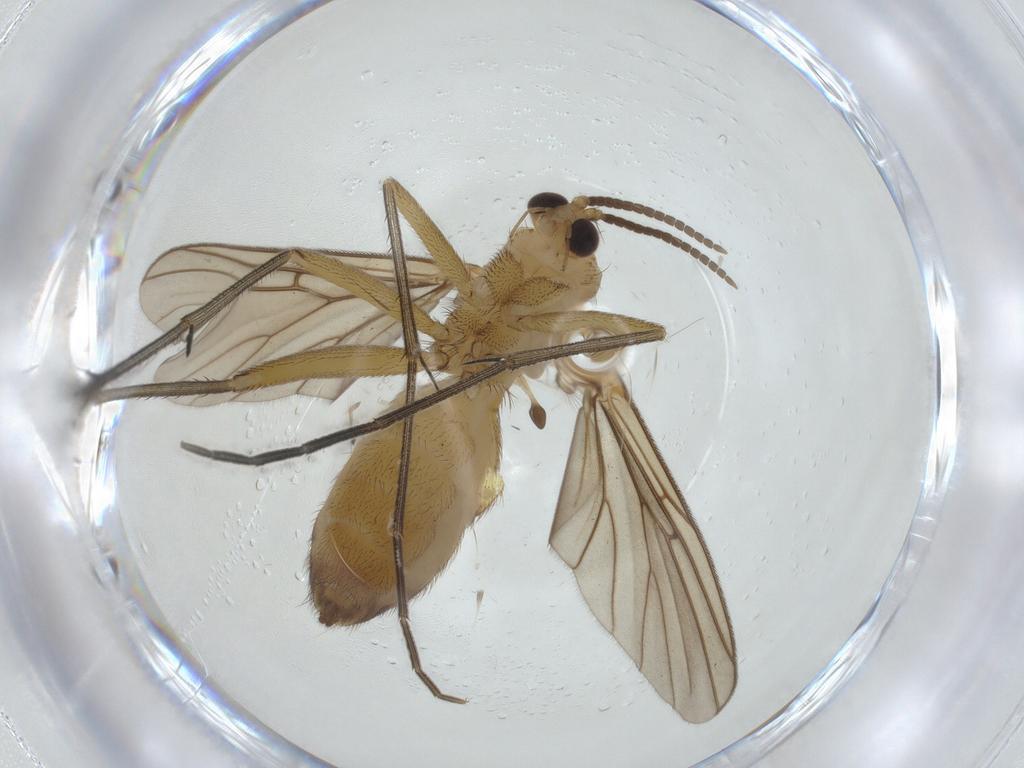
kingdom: Animalia
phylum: Arthropoda
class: Insecta
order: Diptera
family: Mycetophilidae
